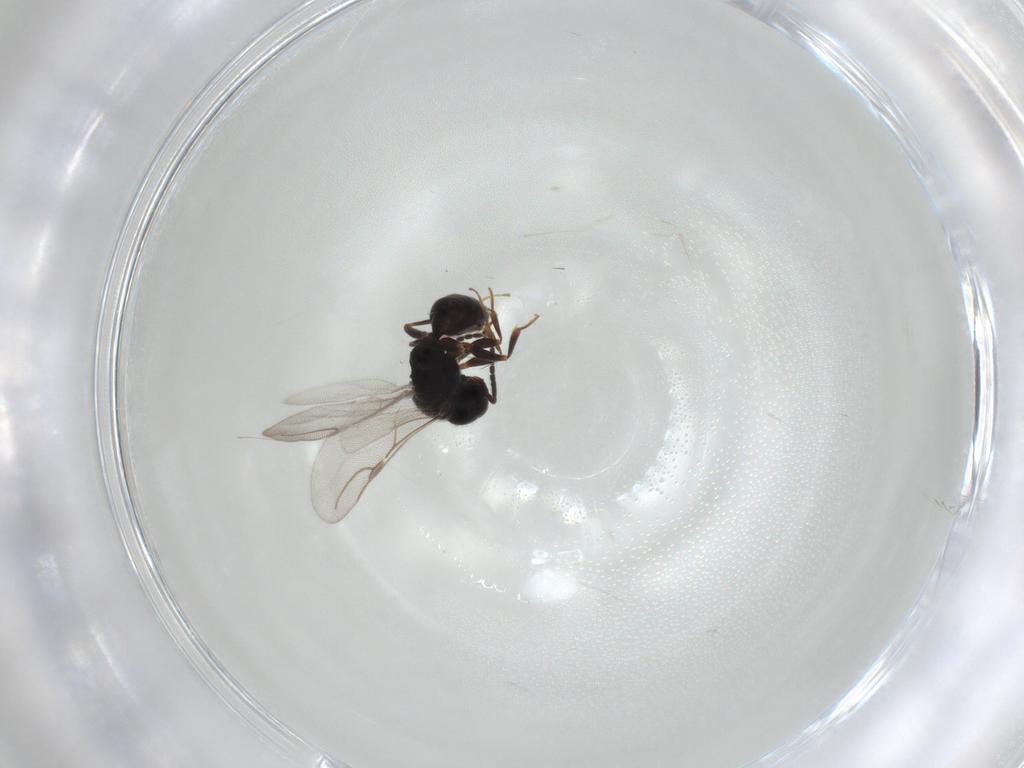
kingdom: Animalia
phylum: Arthropoda
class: Insecta
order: Hymenoptera
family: Bethylidae
